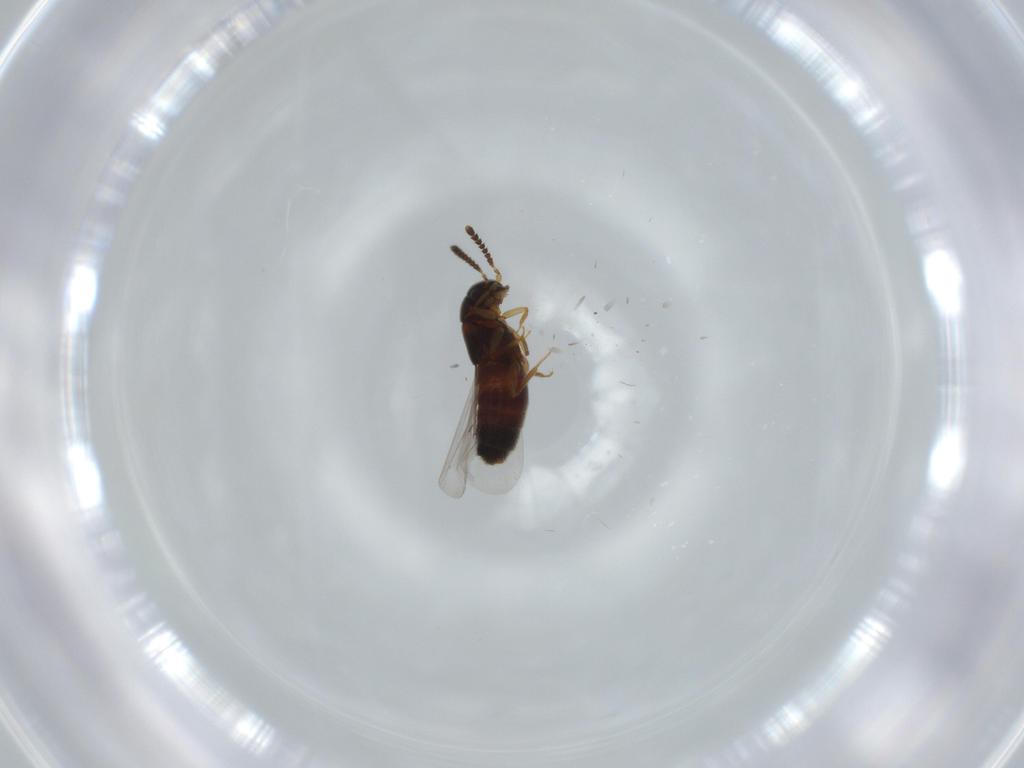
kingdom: Animalia
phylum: Arthropoda
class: Insecta
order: Coleoptera
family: Staphylinidae
